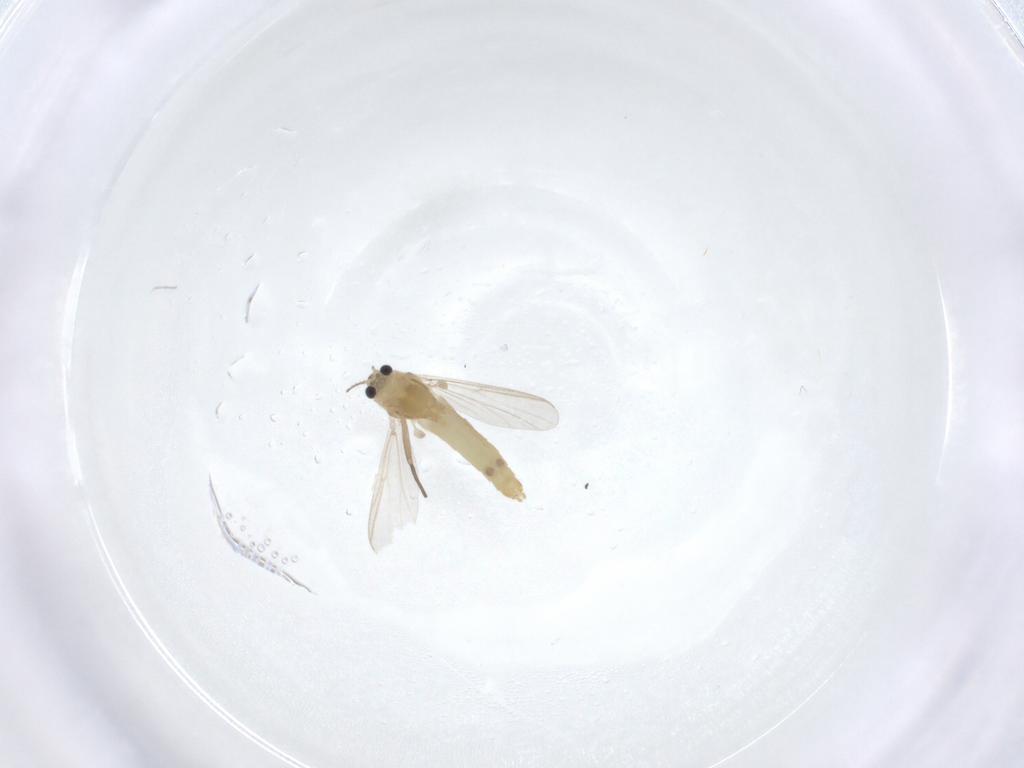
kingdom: Animalia
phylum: Arthropoda
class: Insecta
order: Diptera
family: Chironomidae
